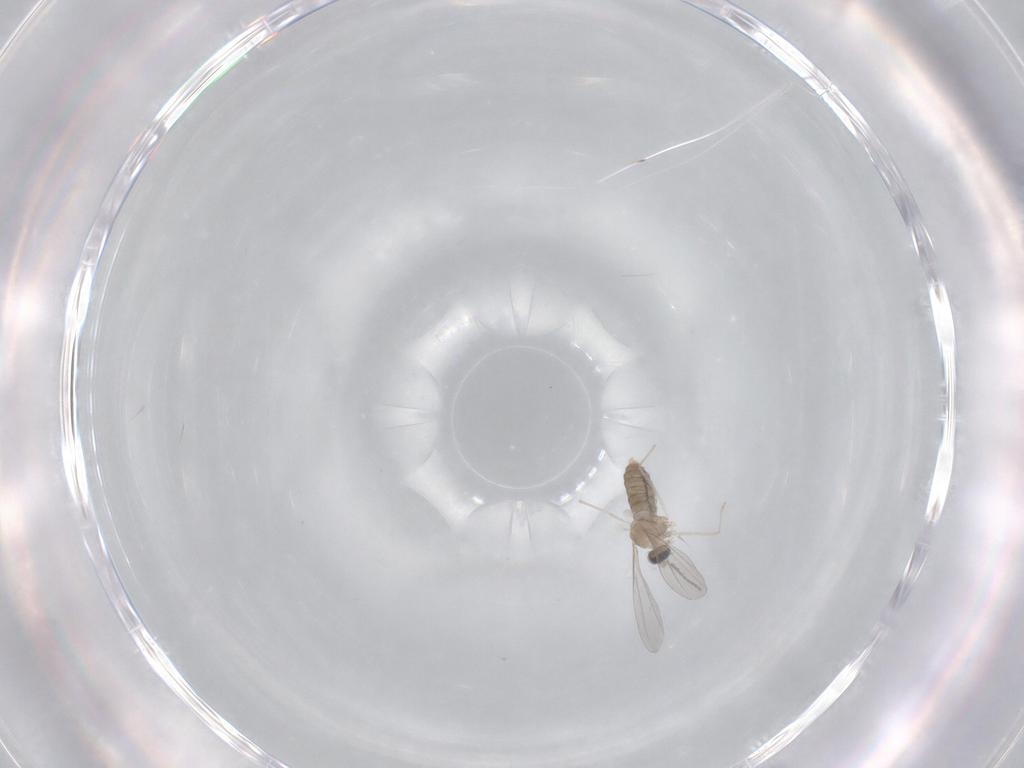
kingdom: Animalia
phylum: Arthropoda
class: Insecta
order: Diptera
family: Cecidomyiidae
